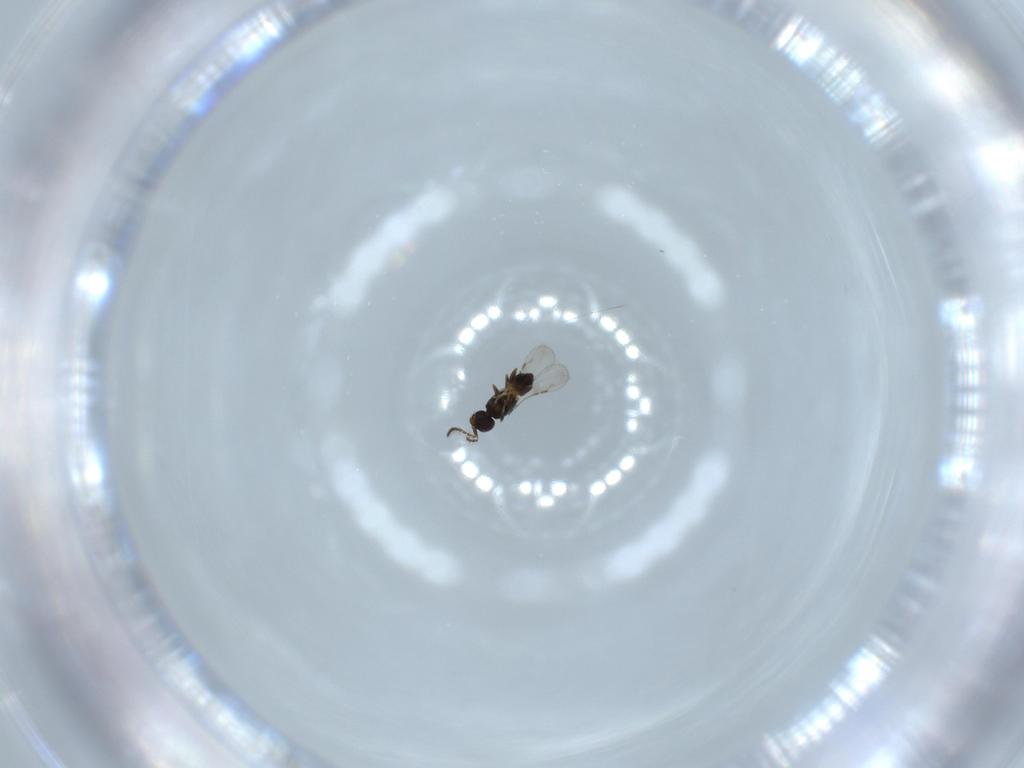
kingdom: Animalia
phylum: Arthropoda
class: Insecta
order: Hymenoptera
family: Ceraphronidae
